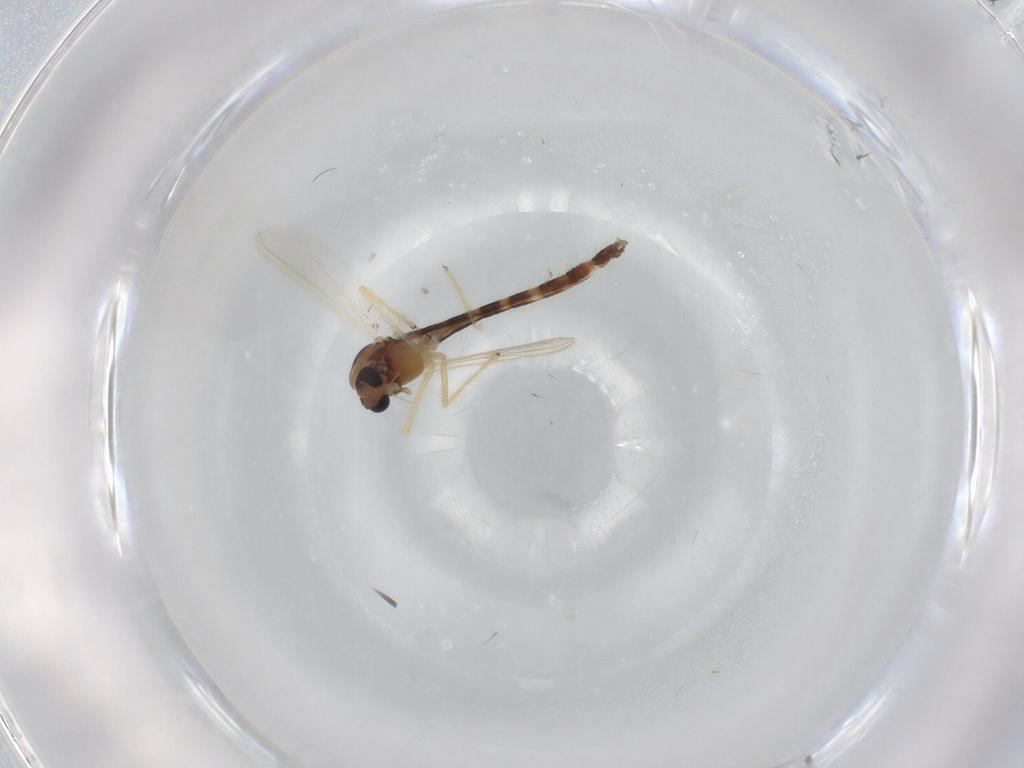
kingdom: Animalia
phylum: Arthropoda
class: Insecta
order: Diptera
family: Chironomidae
